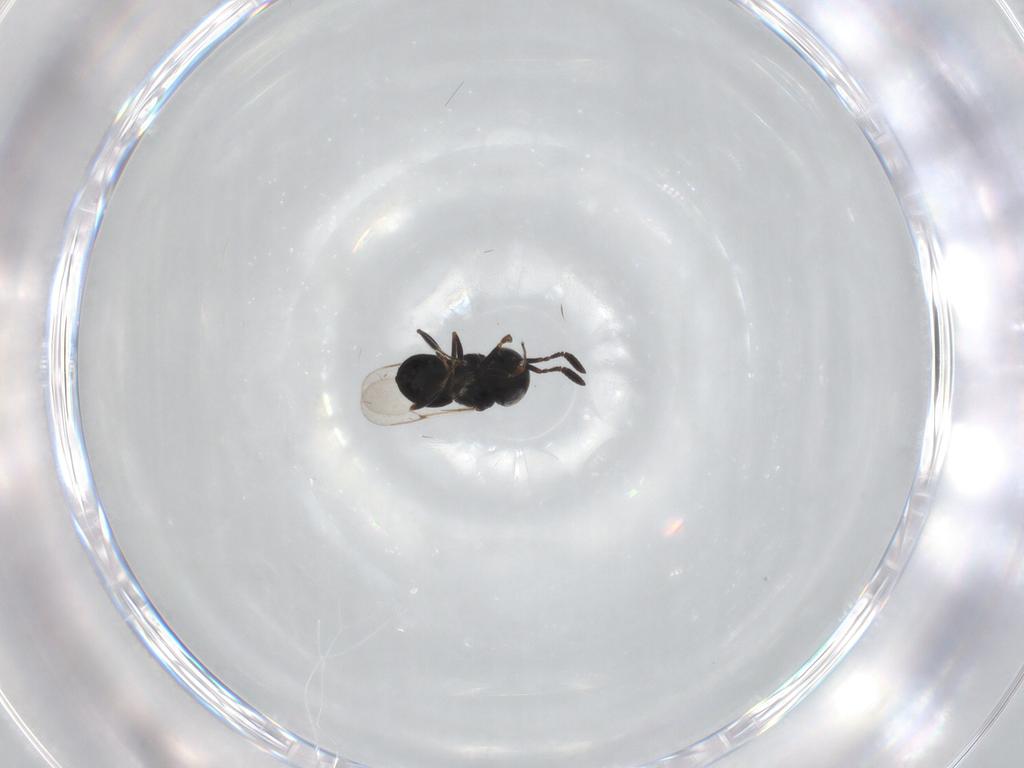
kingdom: Animalia
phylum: Arthropoda
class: Insecta
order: Hymenoptera
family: Scelionidae
